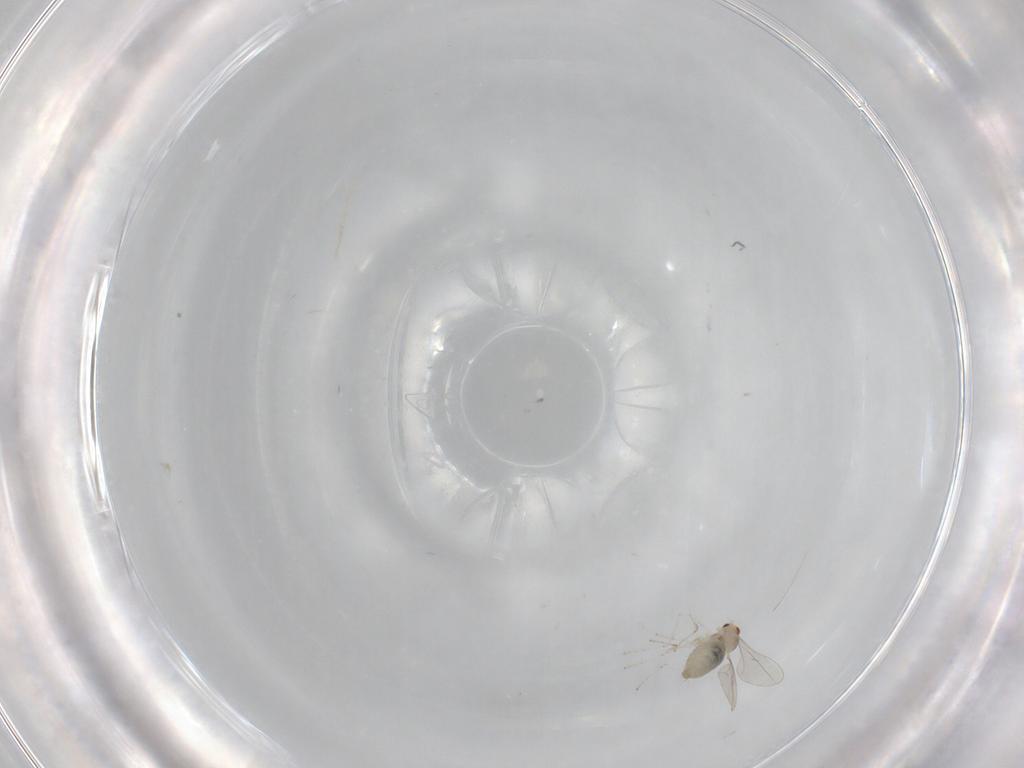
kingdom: Animalia
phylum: Arthropoda
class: Insecta
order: Diptera
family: Cecidomyiidae
